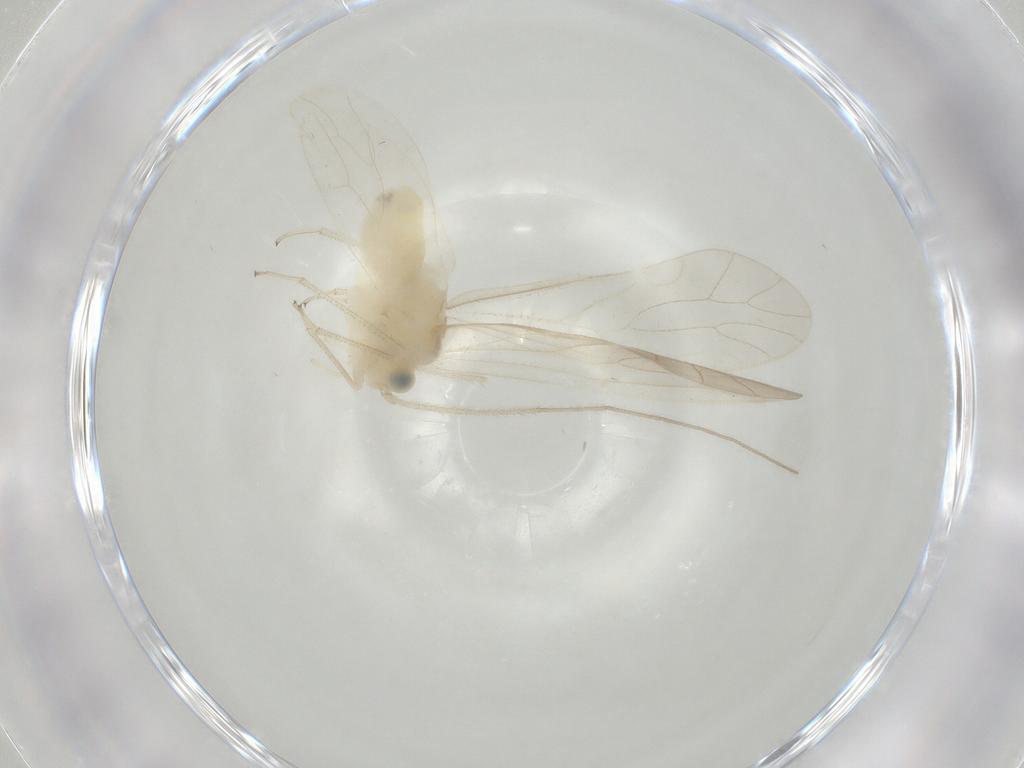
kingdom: Animalia
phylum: Arthropoda
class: Insecta
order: Psocodea
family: Caeciliusidae
